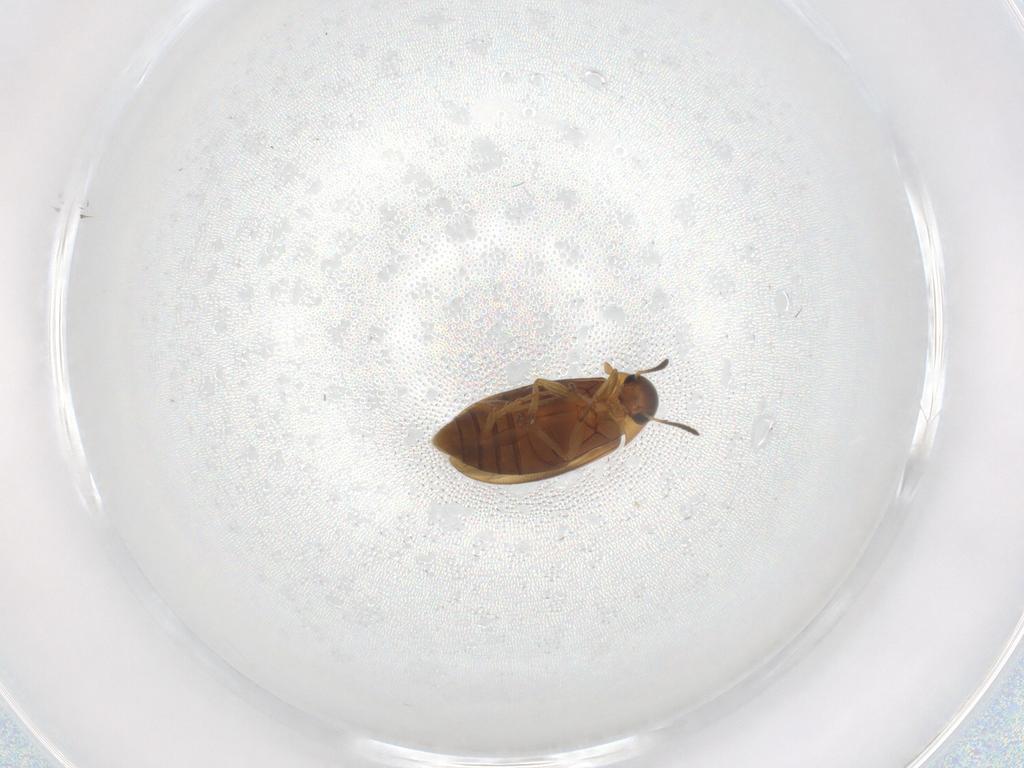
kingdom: Animalia
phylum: Arthropoda
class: Insecta
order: Coleoptera
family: Scraptiidae
